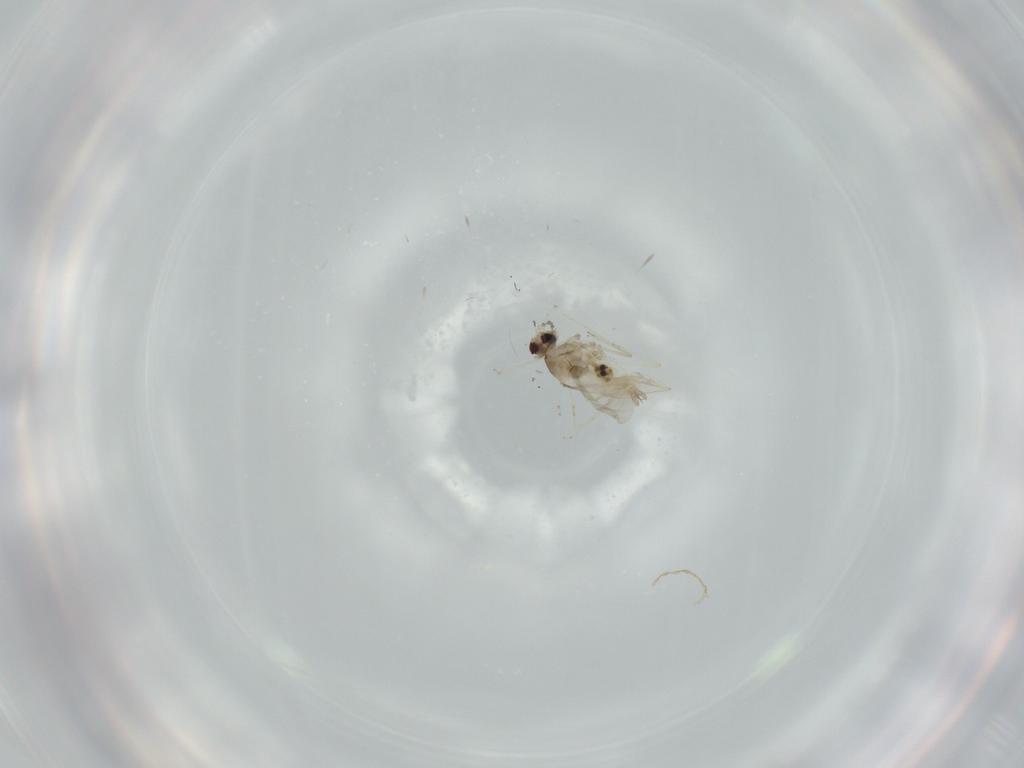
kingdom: Animalia
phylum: Arthropoda
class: Insecta
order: Diptera
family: Cecidomyiidae
